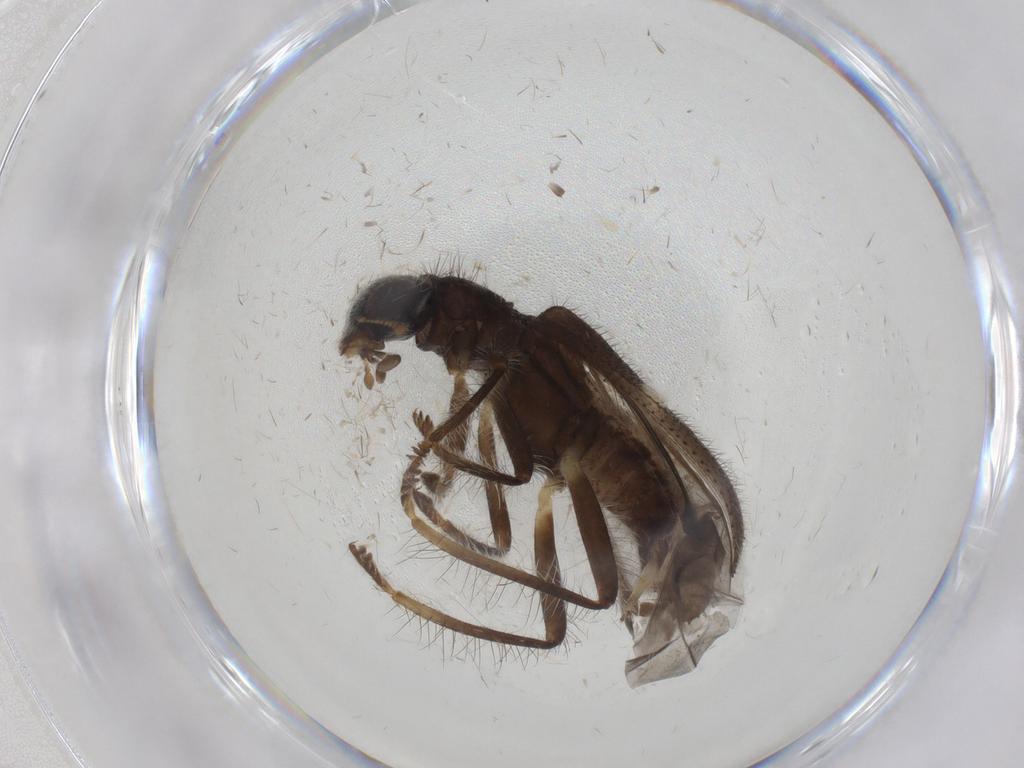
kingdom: Animalia
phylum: Arthropoda
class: Insecta
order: Coleoptera
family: Cleridae
